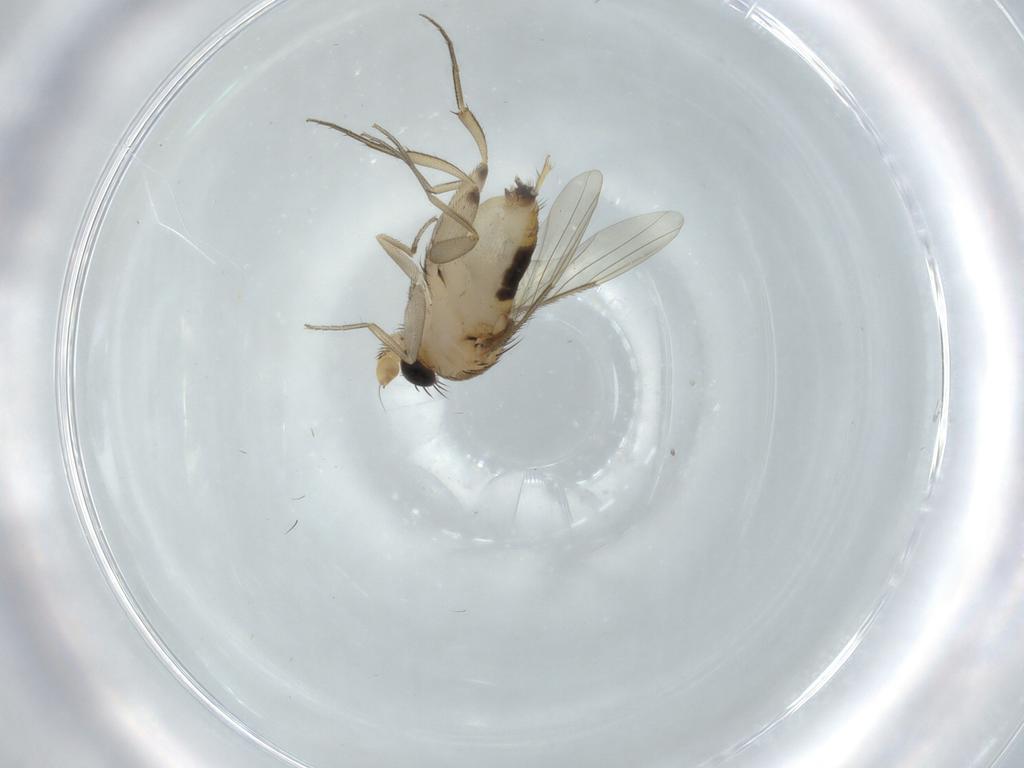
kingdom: Animalia
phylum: Arthropoda
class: Insecta
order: Diptera
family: Phoridae
